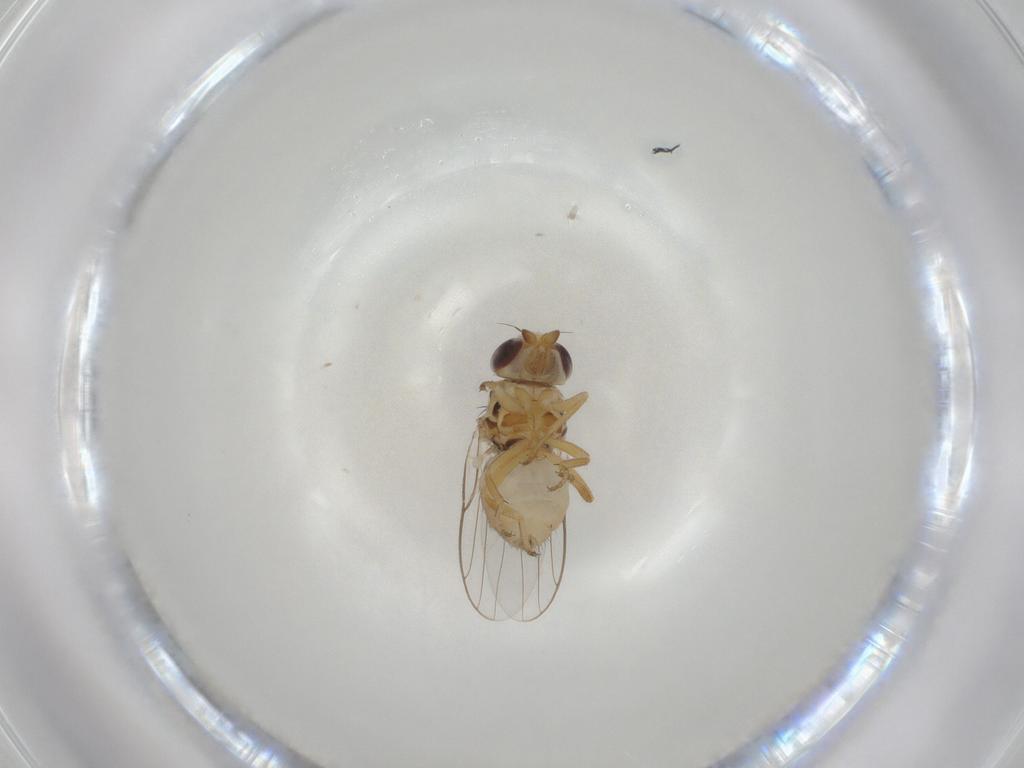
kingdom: Animalia
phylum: Arthropoda
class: Insecta
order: Diptera
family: Chloropidae
